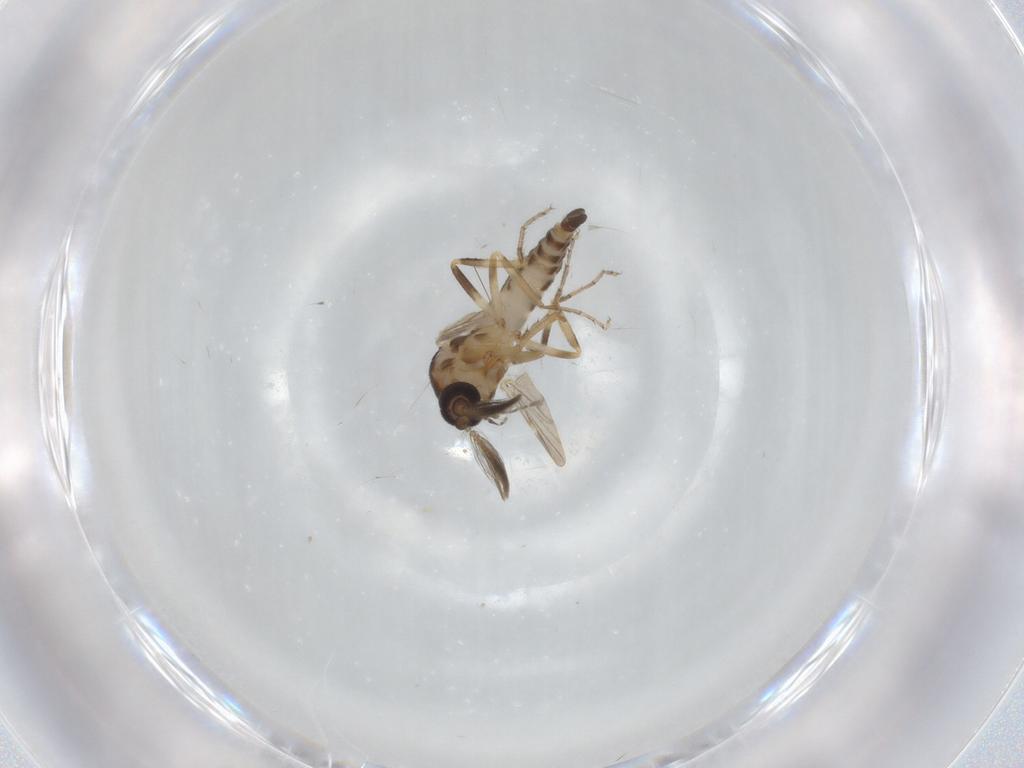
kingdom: Animalia
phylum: Arthropoda
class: Insecta
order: Diptera
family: Ceratopogonidae
